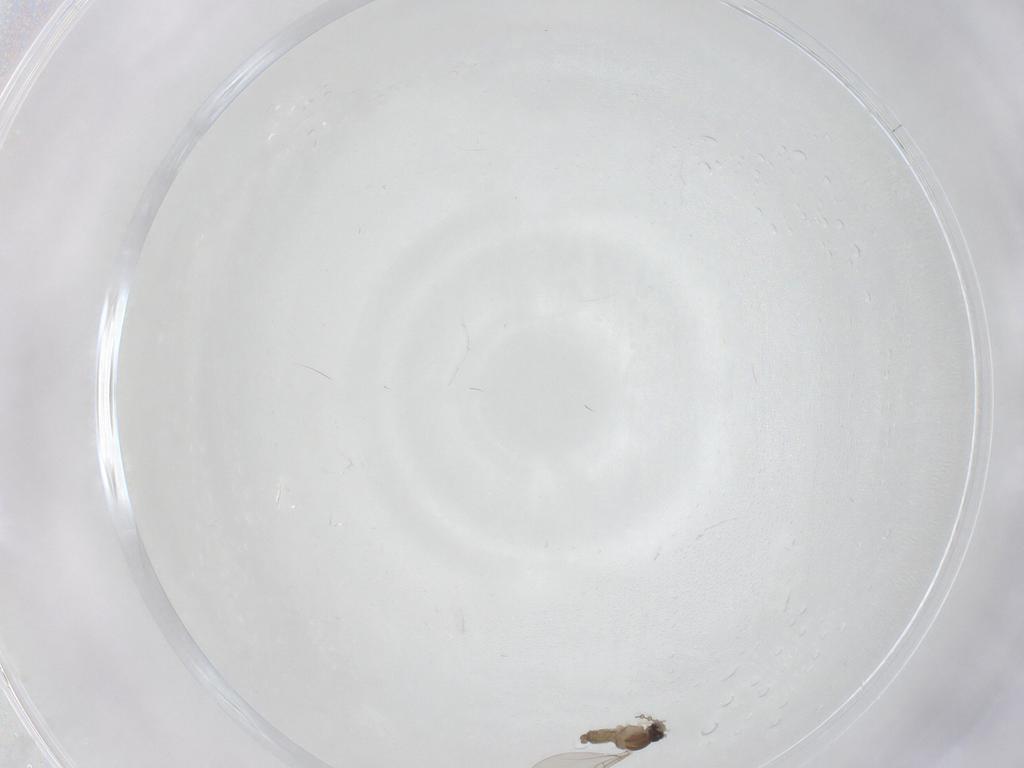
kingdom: Animalia
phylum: Arthropoda
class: Insecta
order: Diptera
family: Cecidomyiidae
